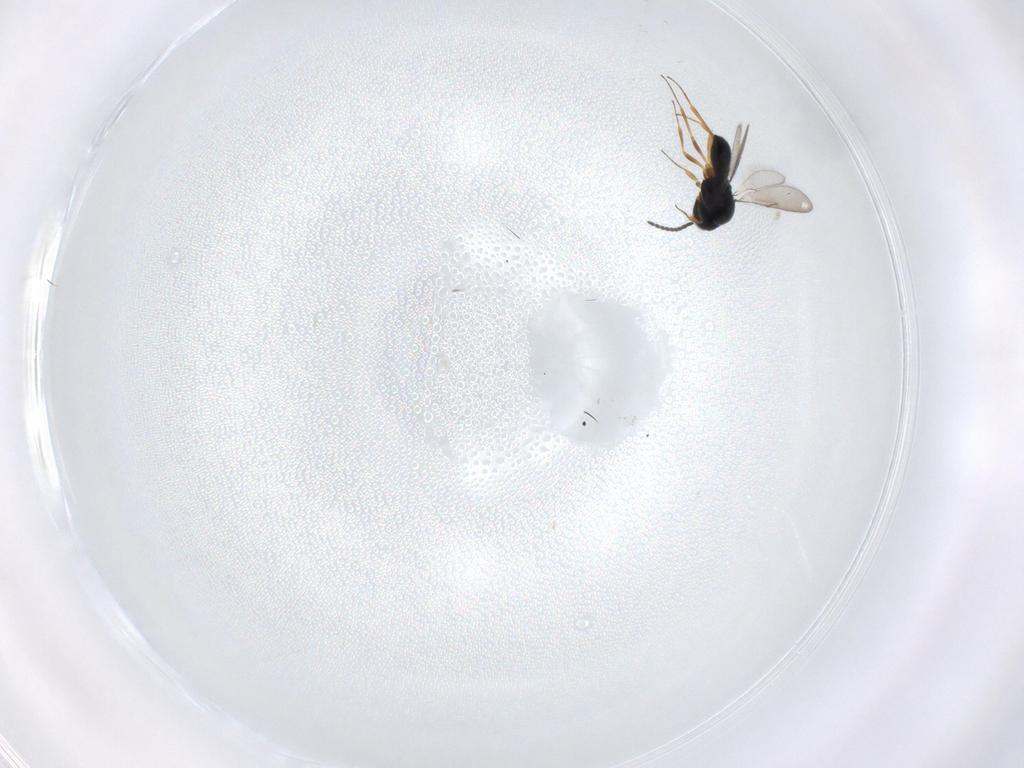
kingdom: Animalia
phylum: Arthropoda
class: Insecta
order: Hymenoptera
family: Scelionidae
